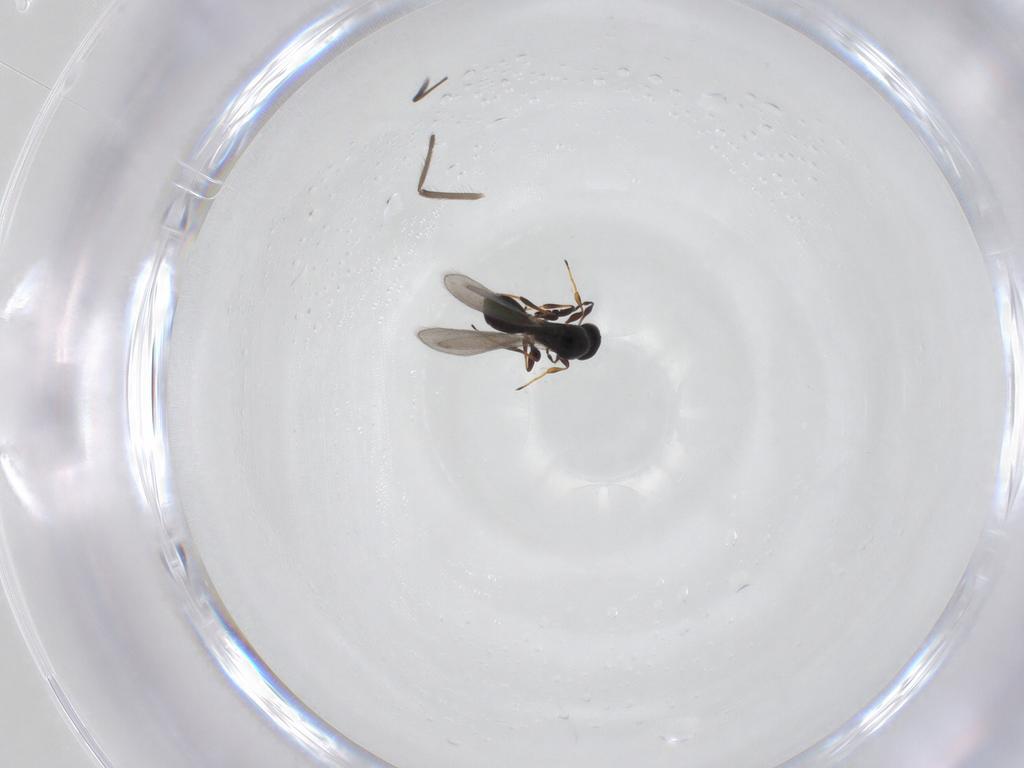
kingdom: Animalia
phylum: Arthropoda
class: Insecta
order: Hymenoptera
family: Platygastridae
